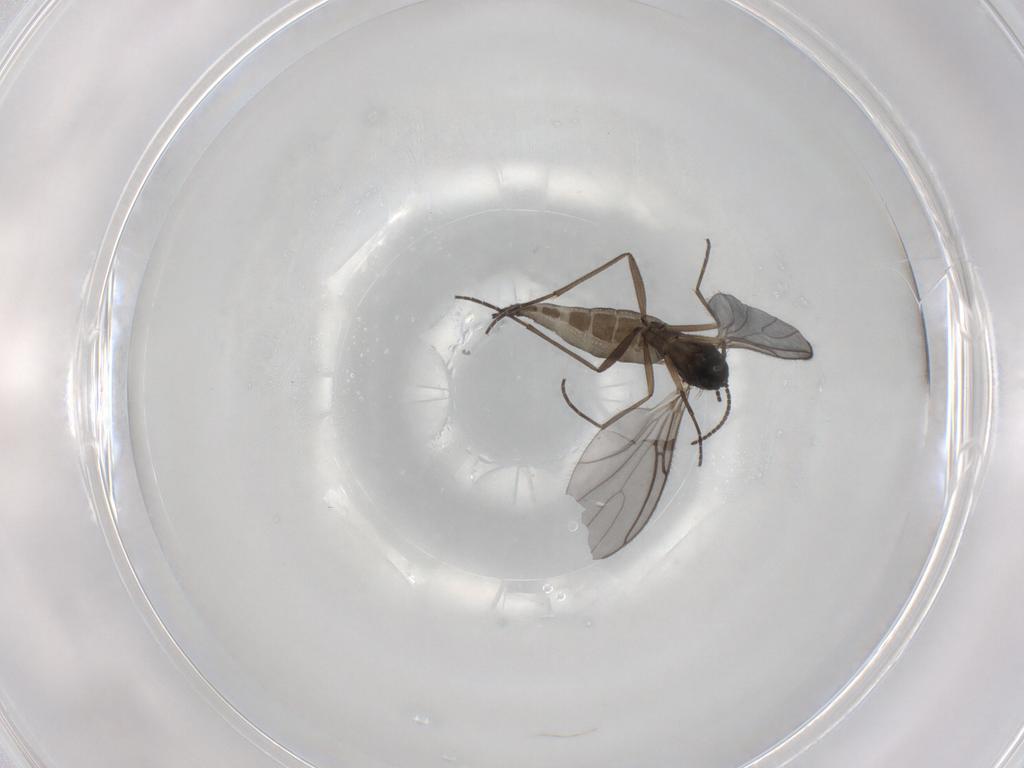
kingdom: Animalia
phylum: Arthropoda
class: Insecta
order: Diptera
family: Sciaridae
